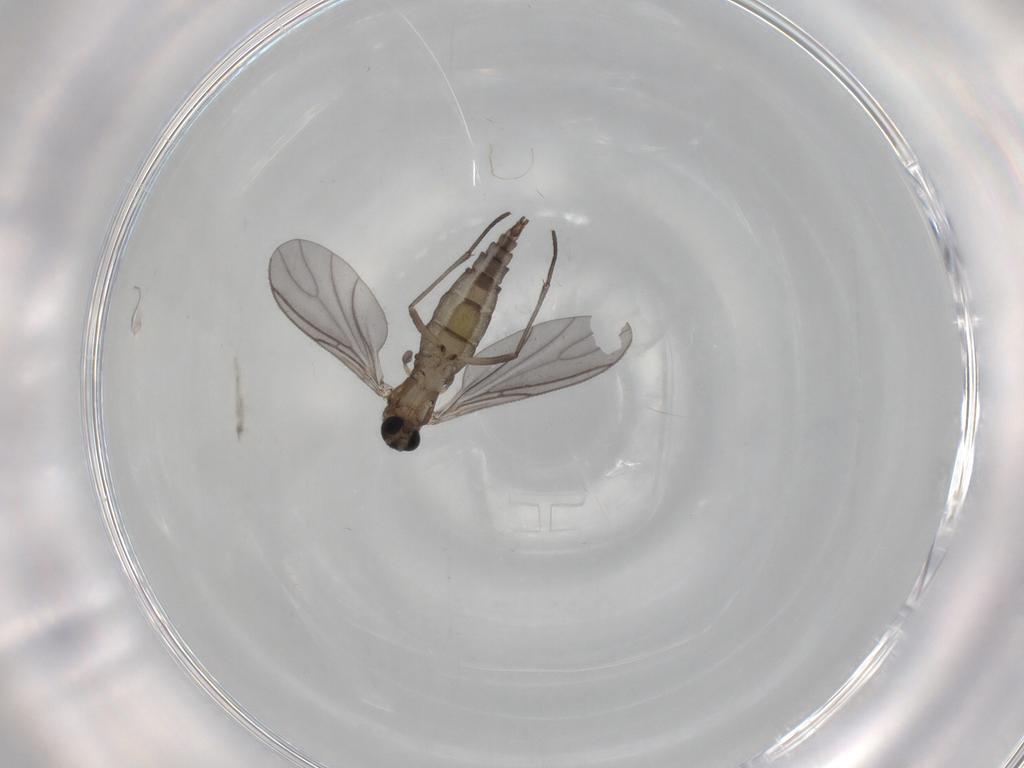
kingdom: Animalia
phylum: Arthropoda
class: Insecta
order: Diptera
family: Sciaridae
